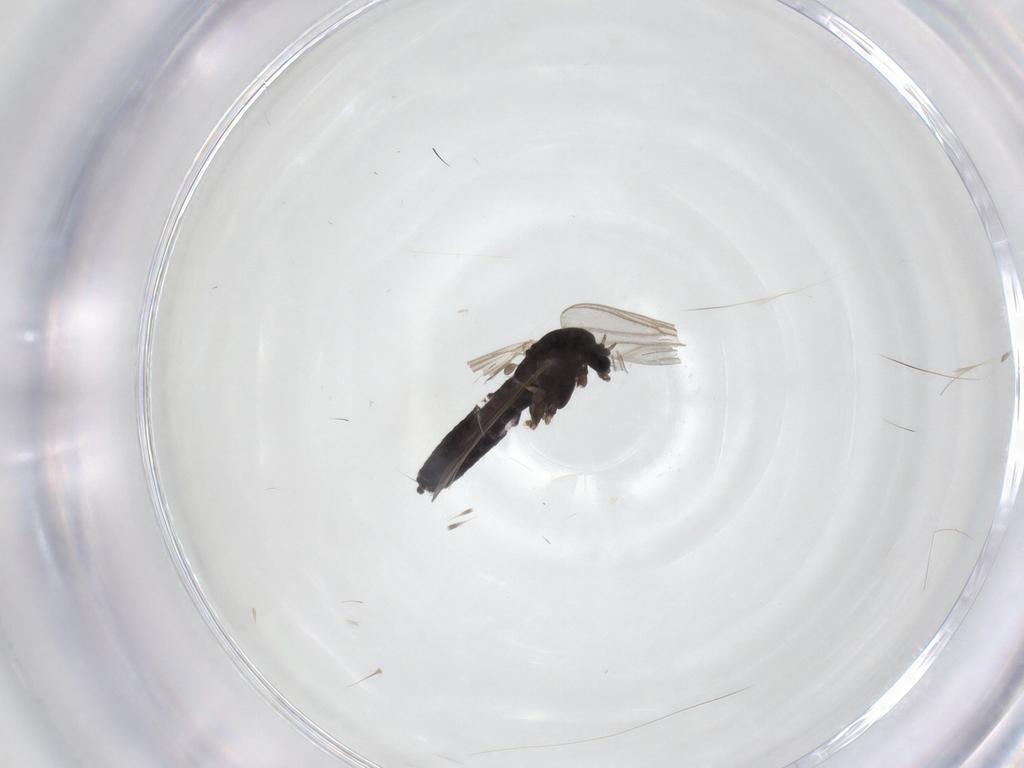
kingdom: Animalia
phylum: Arthropoda
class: Insecta
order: Diptera
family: Chironomidae
